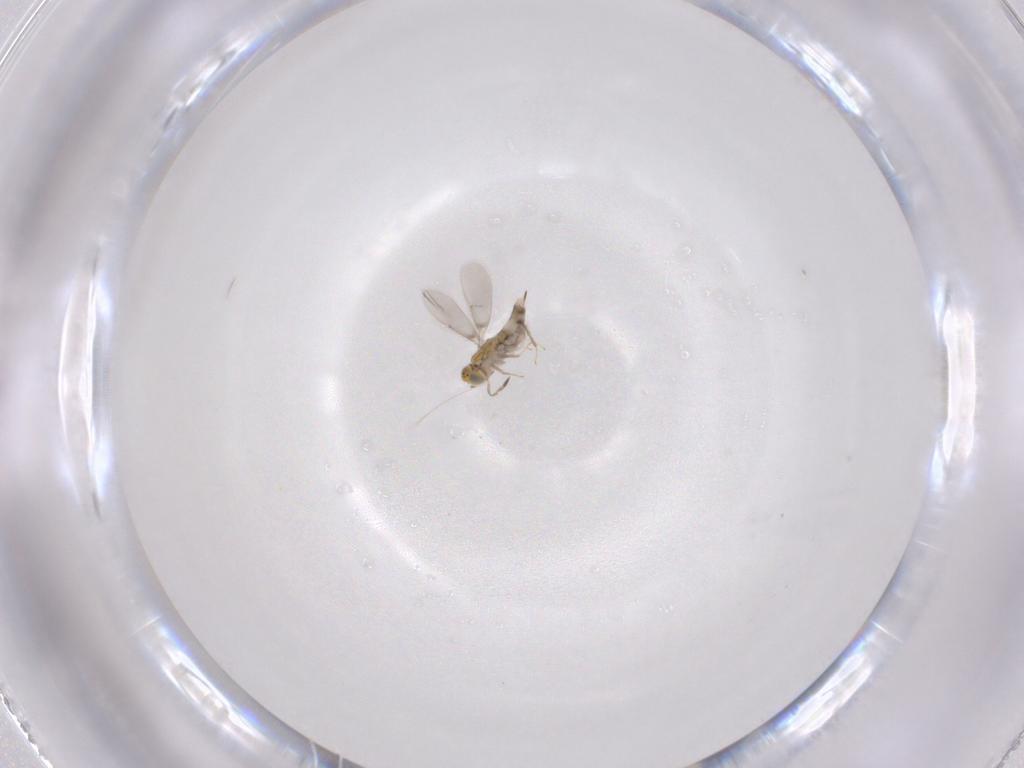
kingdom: Animalia
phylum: Arthropoda
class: Insecta
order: Hymenoptera
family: Aphelinidae
